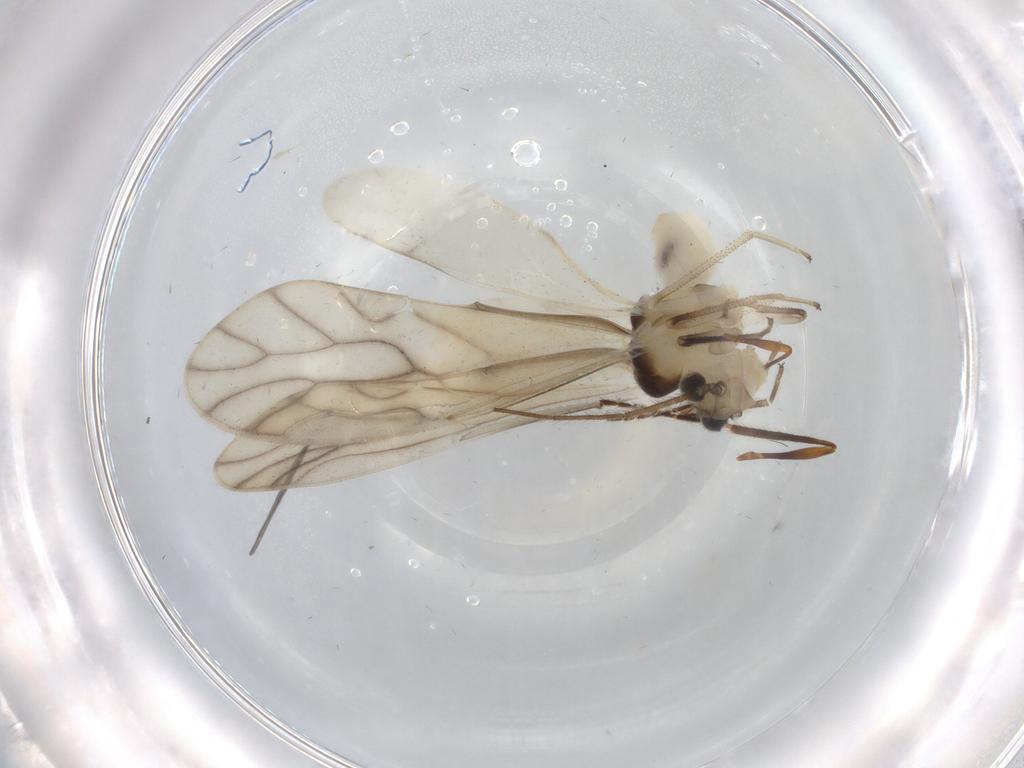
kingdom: Animalia
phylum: Arthropoda
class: Insecta
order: Psocodea
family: Caeciliusidae
